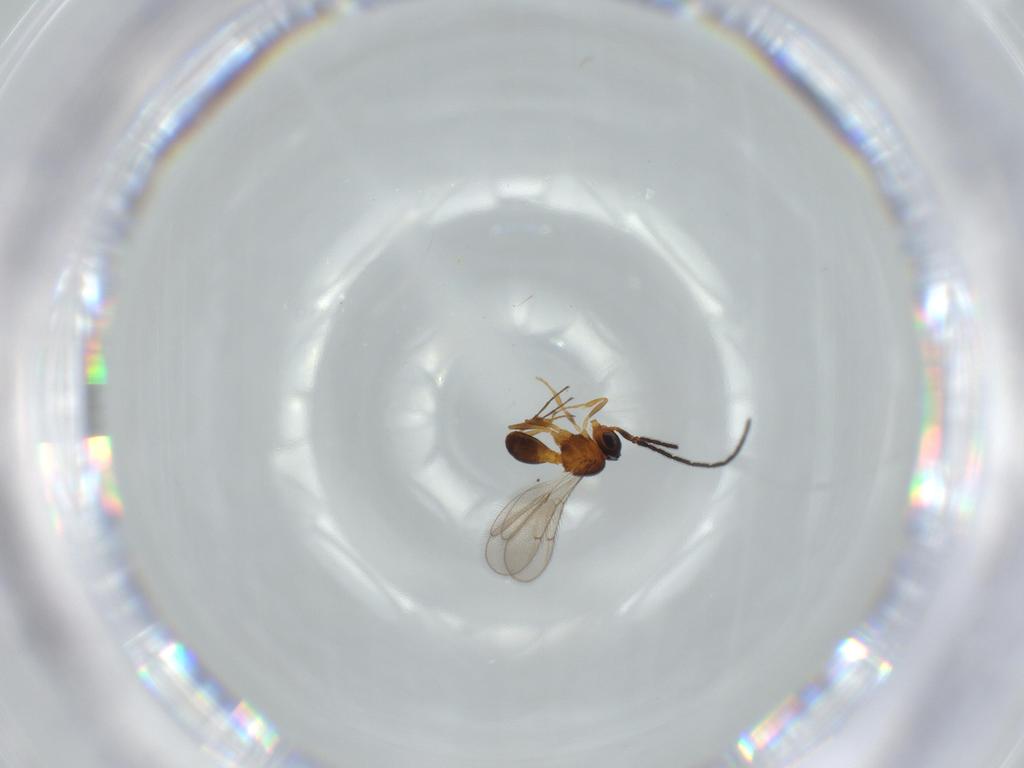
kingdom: Animalia
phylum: Arthropoda
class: Insecta
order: Hymenoptera
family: Scelionidae
